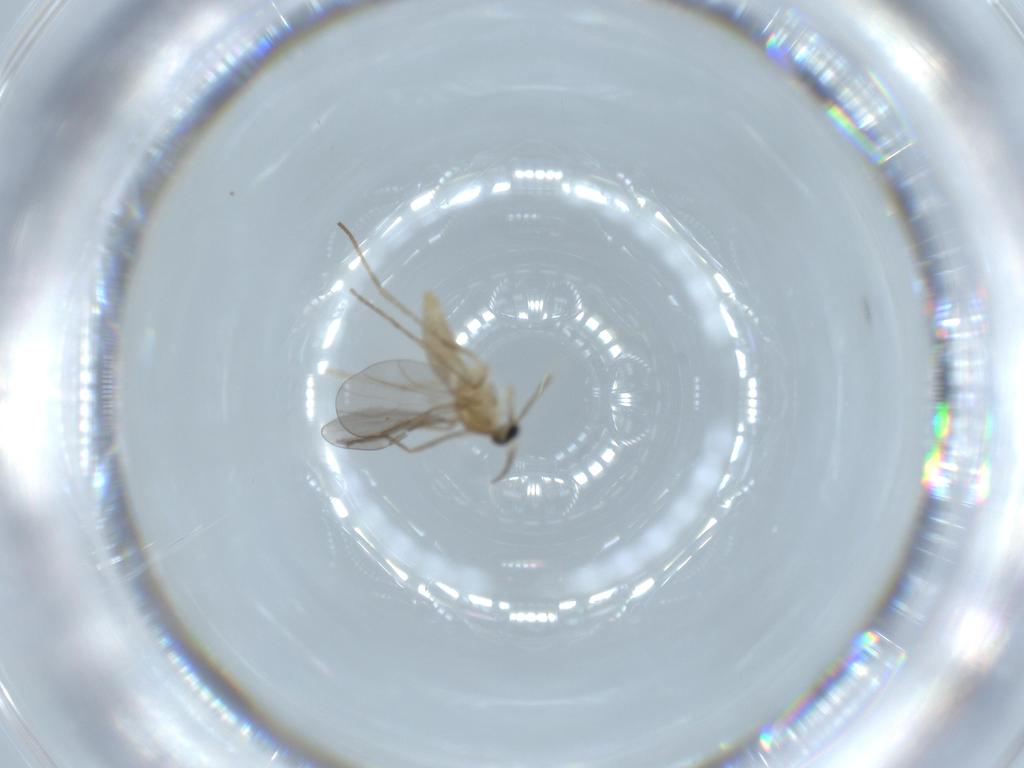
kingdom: Animalia
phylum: Arthropoda
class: Insecta
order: Diptera
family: Cecidomyiidae
